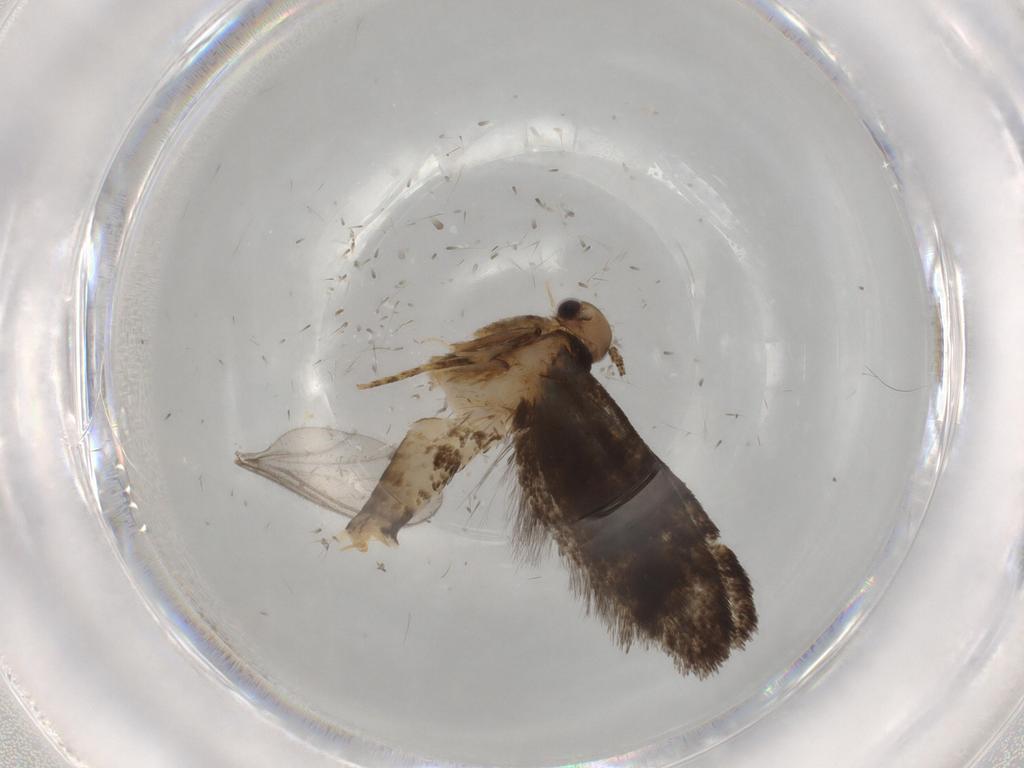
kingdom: Animalia
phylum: Arthropoda
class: Insecta
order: Lepidoptera
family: Tineidae
